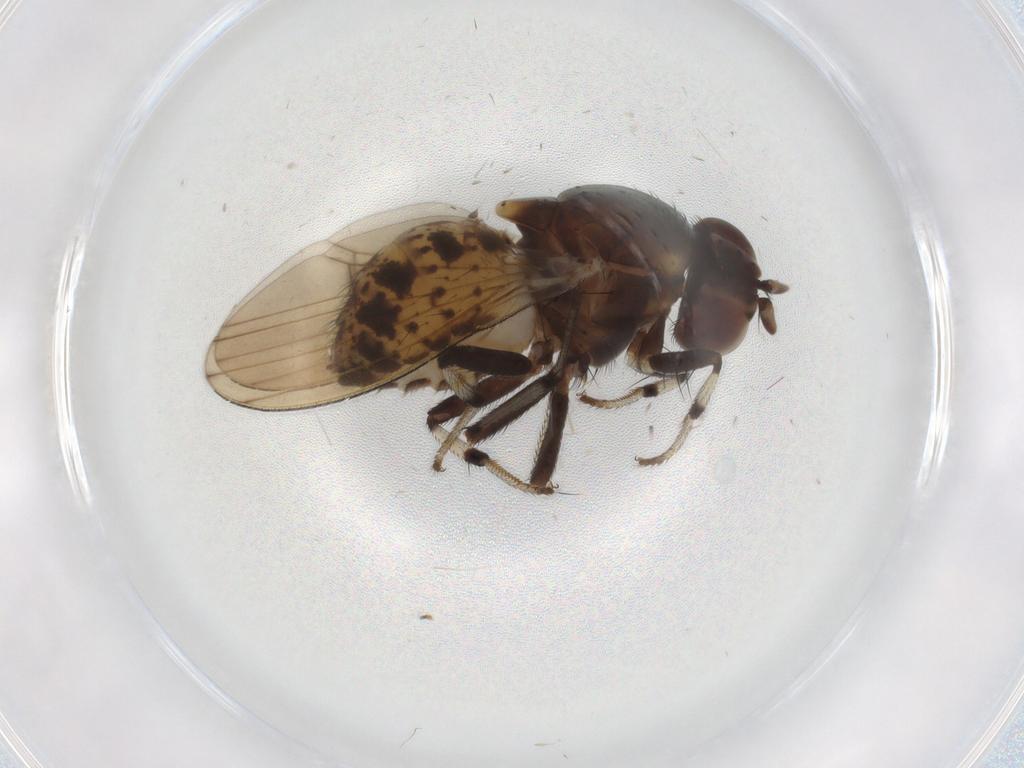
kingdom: Animalia
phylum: Arthropoda
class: Insecta
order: Diptera
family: Lauxaniidae
